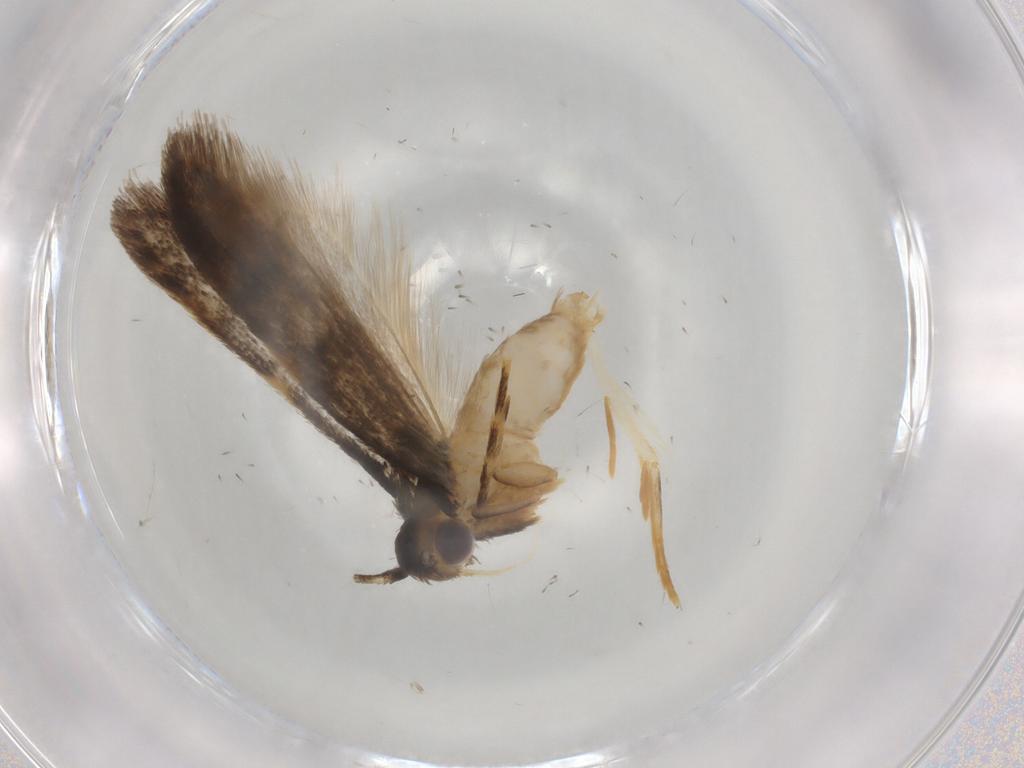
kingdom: Animalia
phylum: Arthropoda
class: Insecta
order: Lepidoptera
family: Autostichidae
